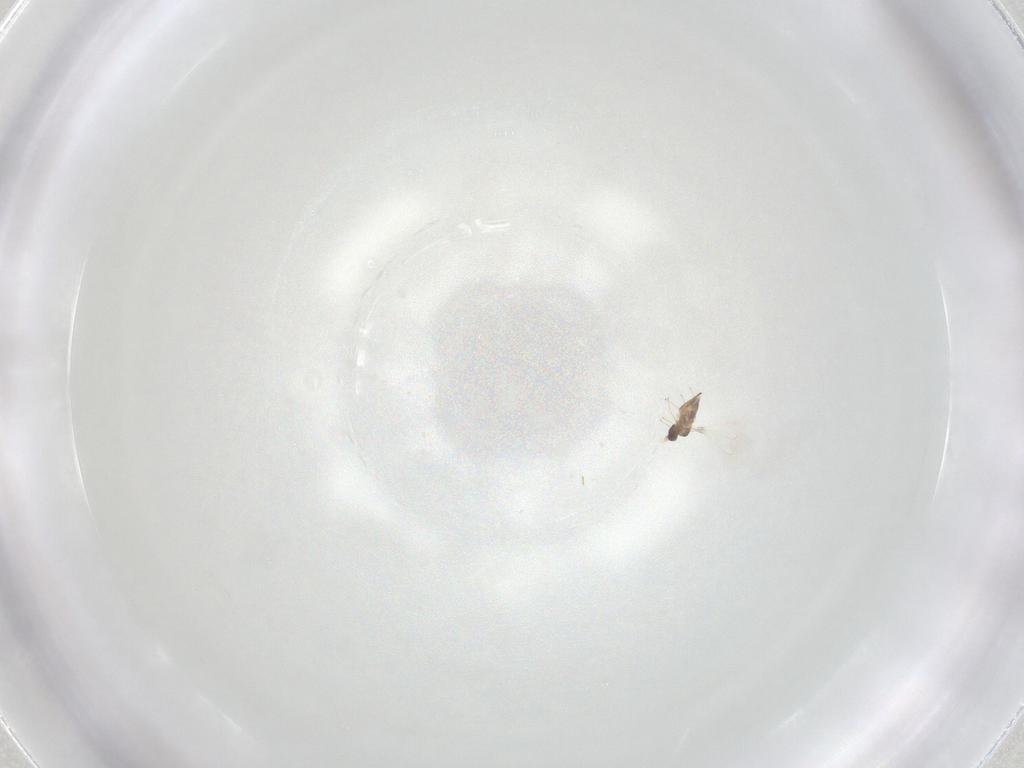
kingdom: Animalia
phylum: Arthropoda
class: Insecta
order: Hymenoptera
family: Mymaridae
